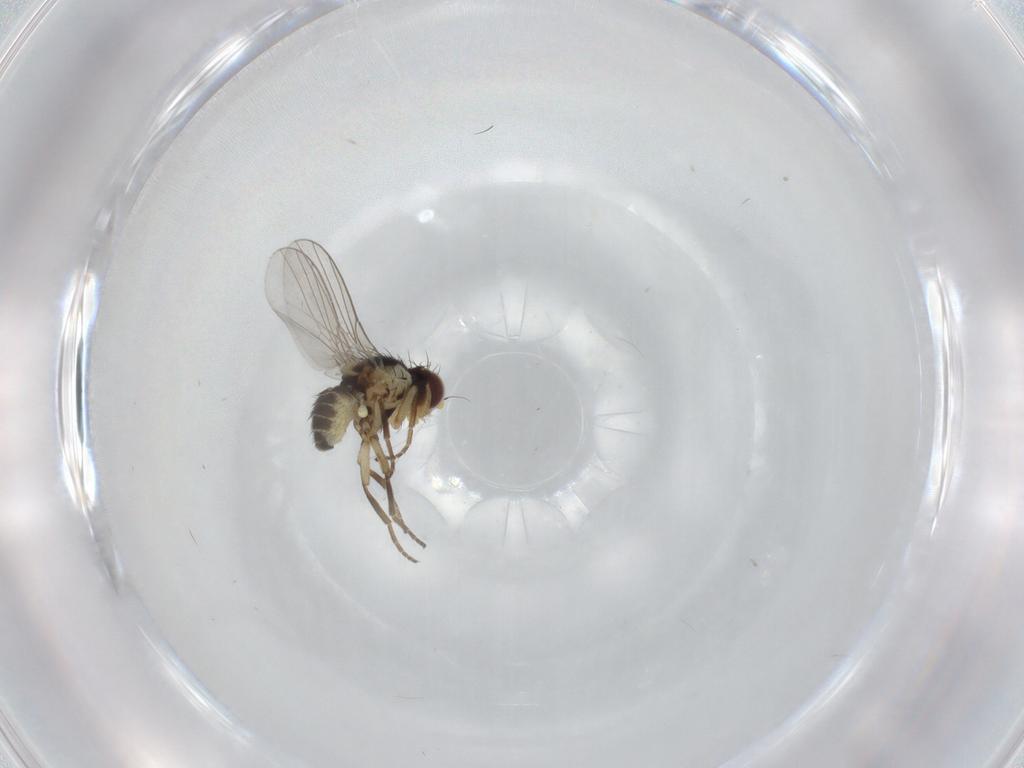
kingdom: Animalia
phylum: Arthropoda
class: Insecta
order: Diptera
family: Agromyzidae
